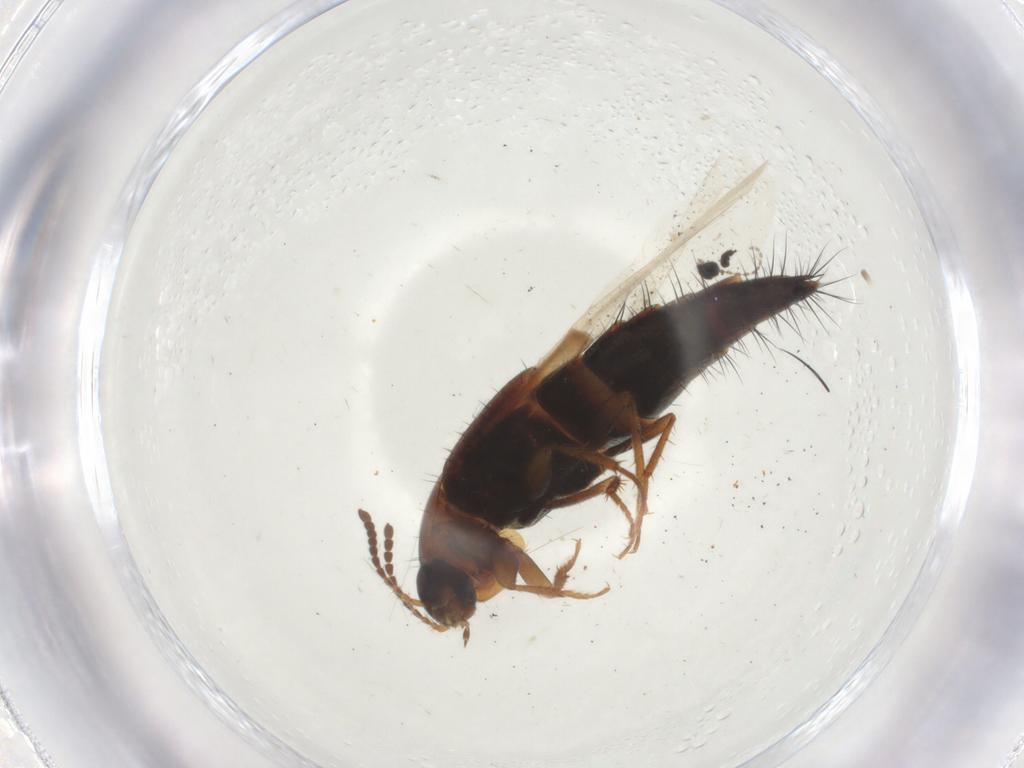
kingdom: Animalia
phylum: Arthropoda
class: Insecta
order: Coleoptera
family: Staphylinidae
